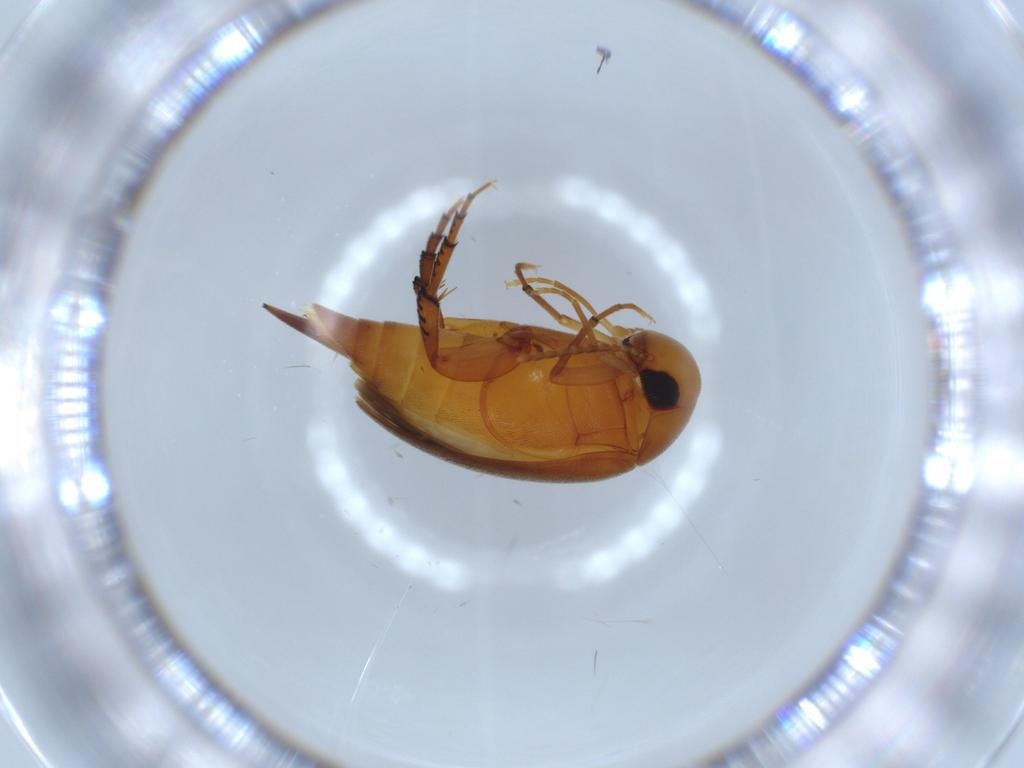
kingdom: Animalia
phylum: Arthropoda
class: Insecta
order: Coleoptera
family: Mordellidae
